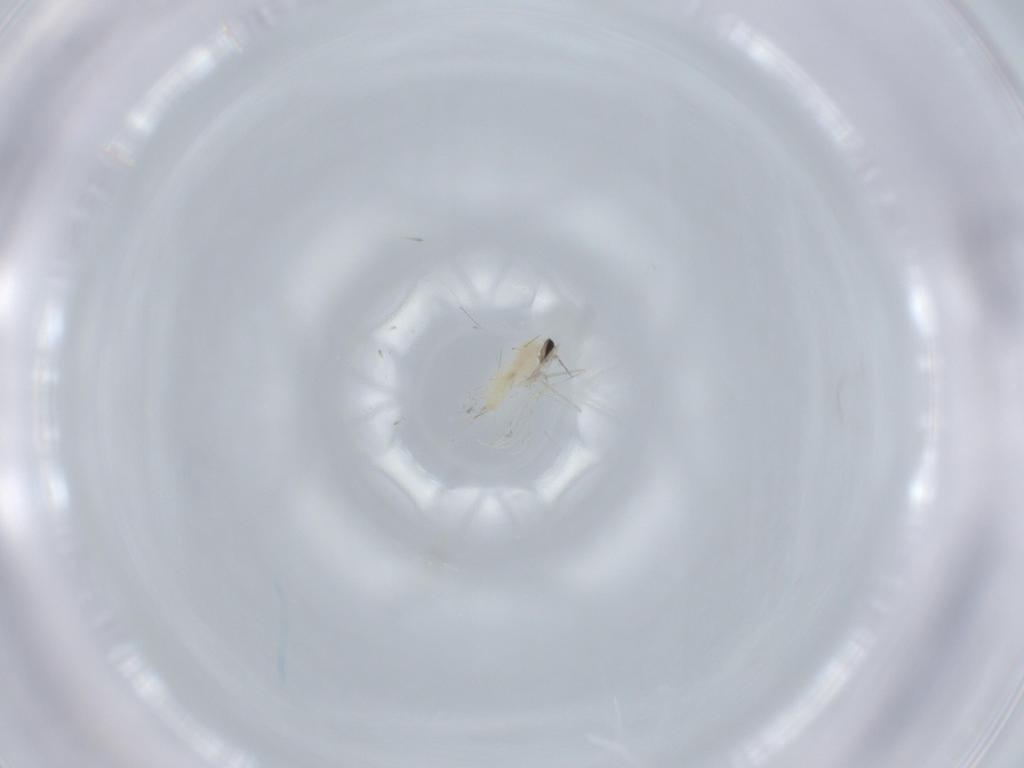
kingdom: Animalia
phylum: Arthropoda
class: Insecta
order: Diptera
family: Cecidomyiidae
